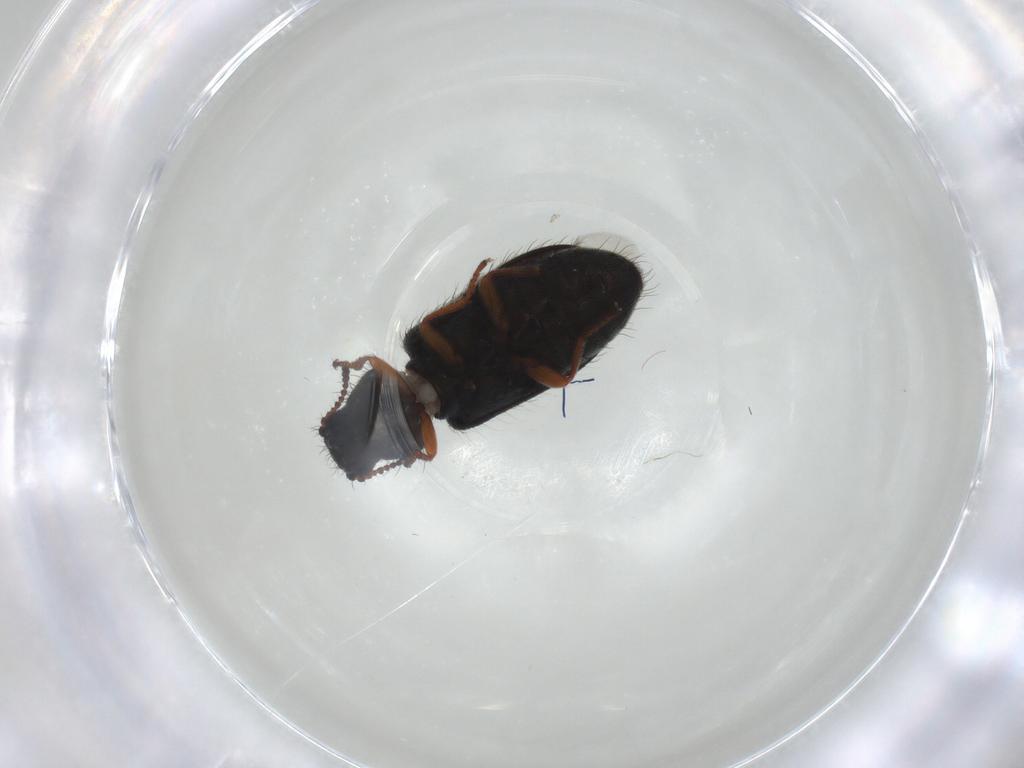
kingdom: Animalia
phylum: Arthropoda
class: Insecta
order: Coleoptera
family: Melyridae
